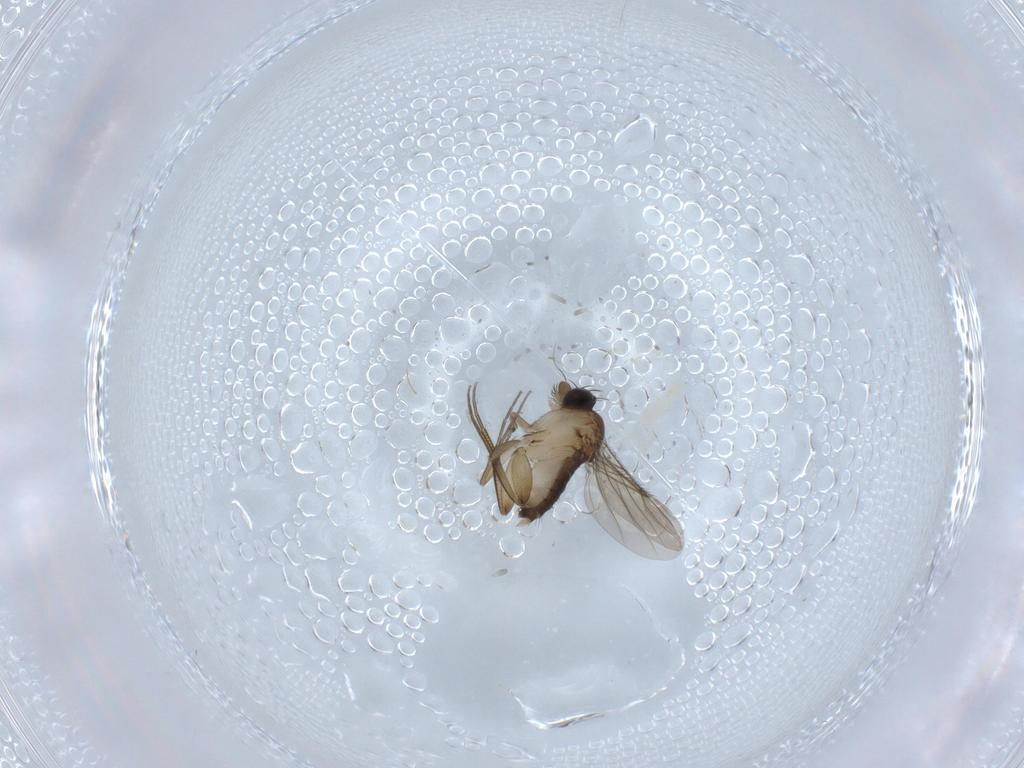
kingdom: Animalia
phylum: Arthropoda
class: Insecta
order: Diptera
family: Phoridae
